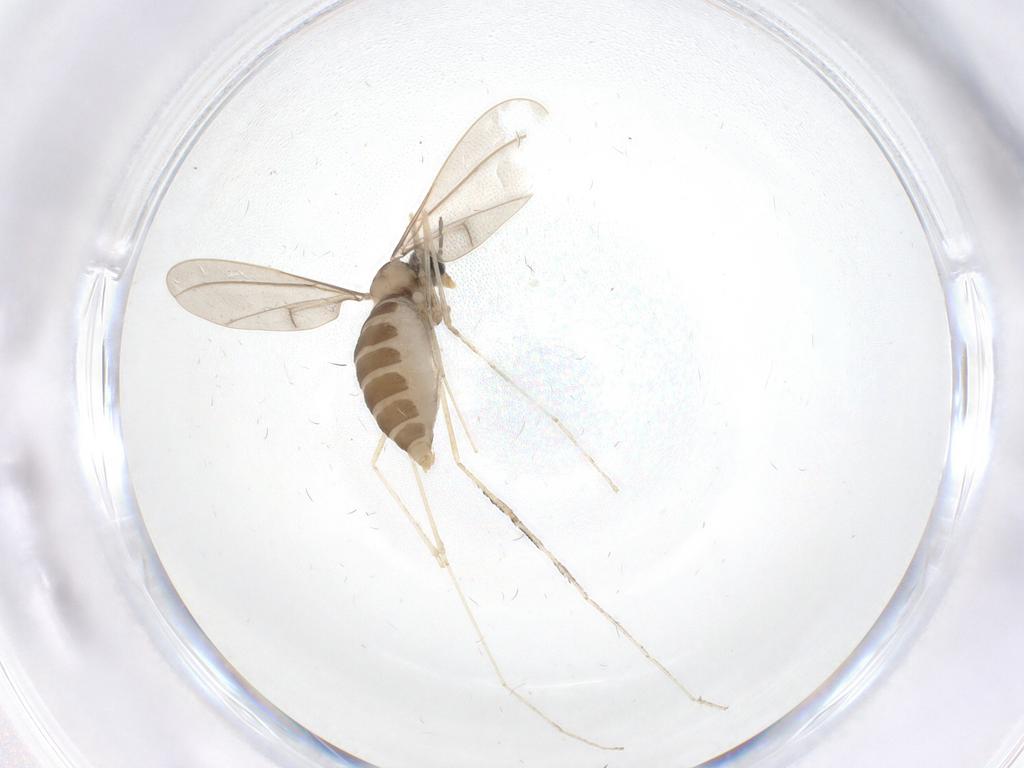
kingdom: Animalia
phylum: Arthropoda
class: Insecta
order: Diptera
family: Cecidomyiidae
